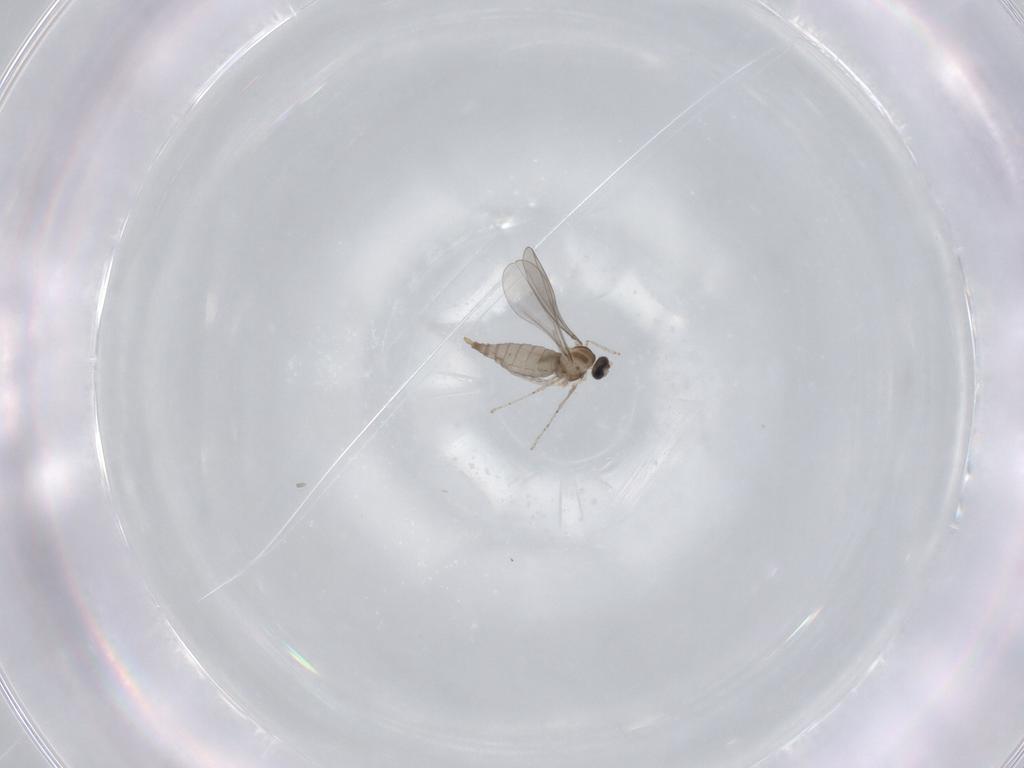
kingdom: Animalia
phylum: Arthropoda
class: Insecta
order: Diptera
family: Cecidomyiidae
